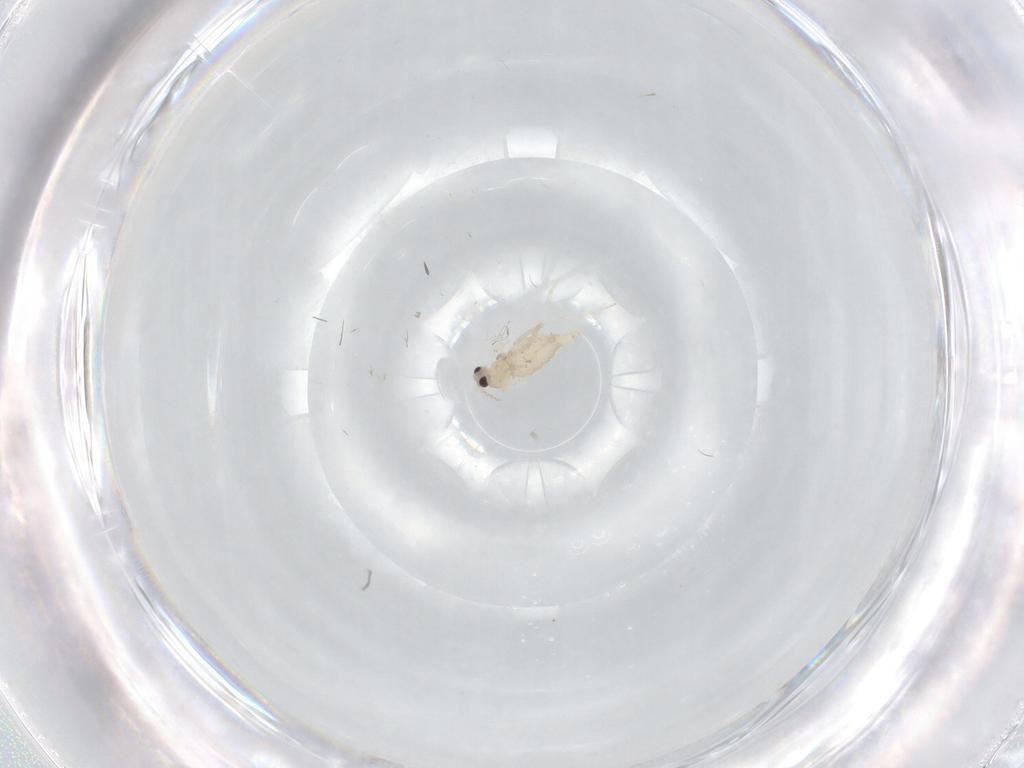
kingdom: Animalia
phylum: Arthropoda
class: Insecta
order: Diptera
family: Cecidomyiidae
